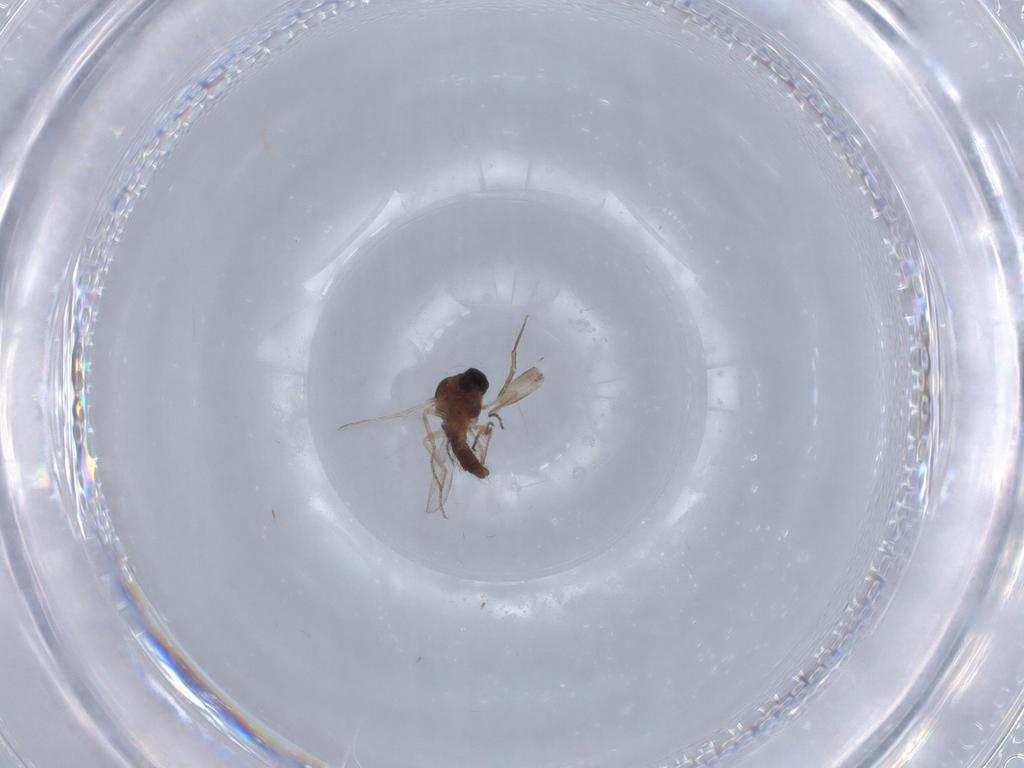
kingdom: Animalia
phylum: Arthropoda
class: Insecta
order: Diptera
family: Ceratopogonidae
